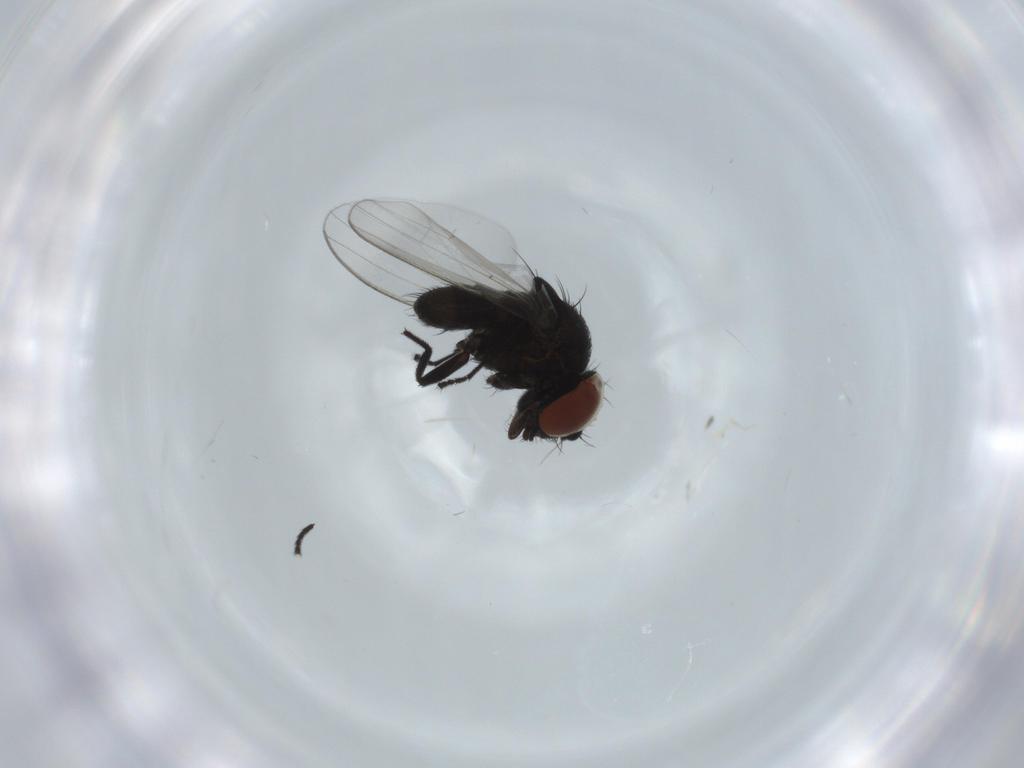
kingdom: Animalia
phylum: Arthropoda
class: Insecta
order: Diptera
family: Milichiidae
